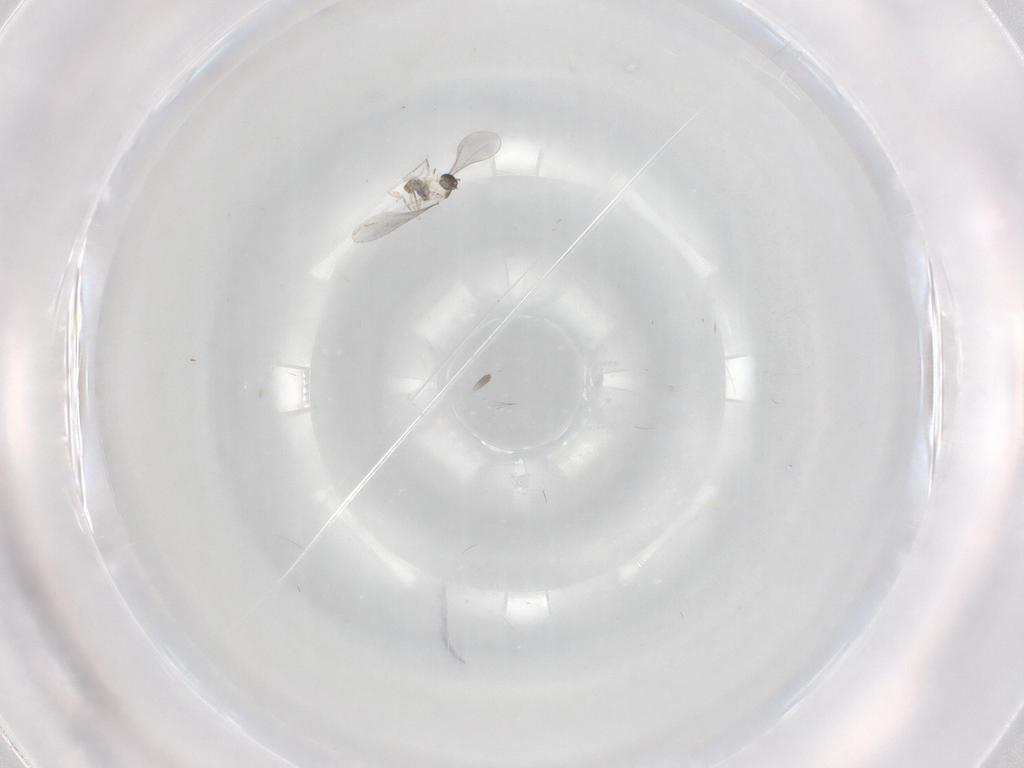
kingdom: Animalia
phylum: Arthropoda
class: Insecta
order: Diptera
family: Cecidomyiidae
